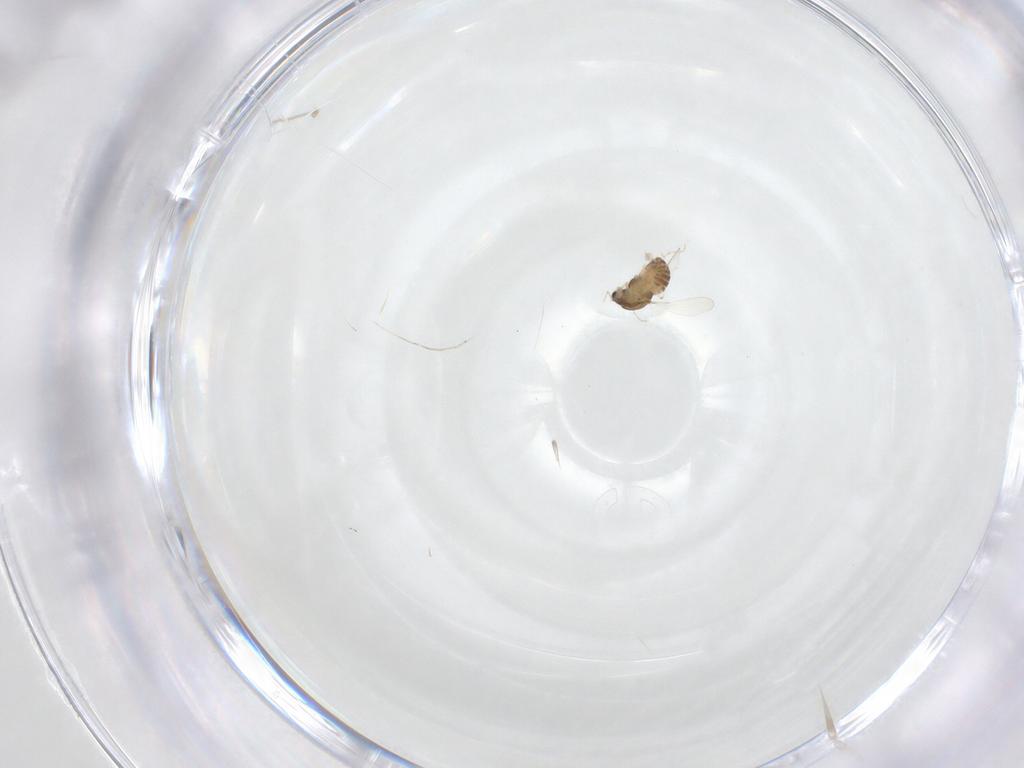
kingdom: Animalia
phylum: Arthropoda
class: Insecta
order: Diptera
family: Chironomidae
